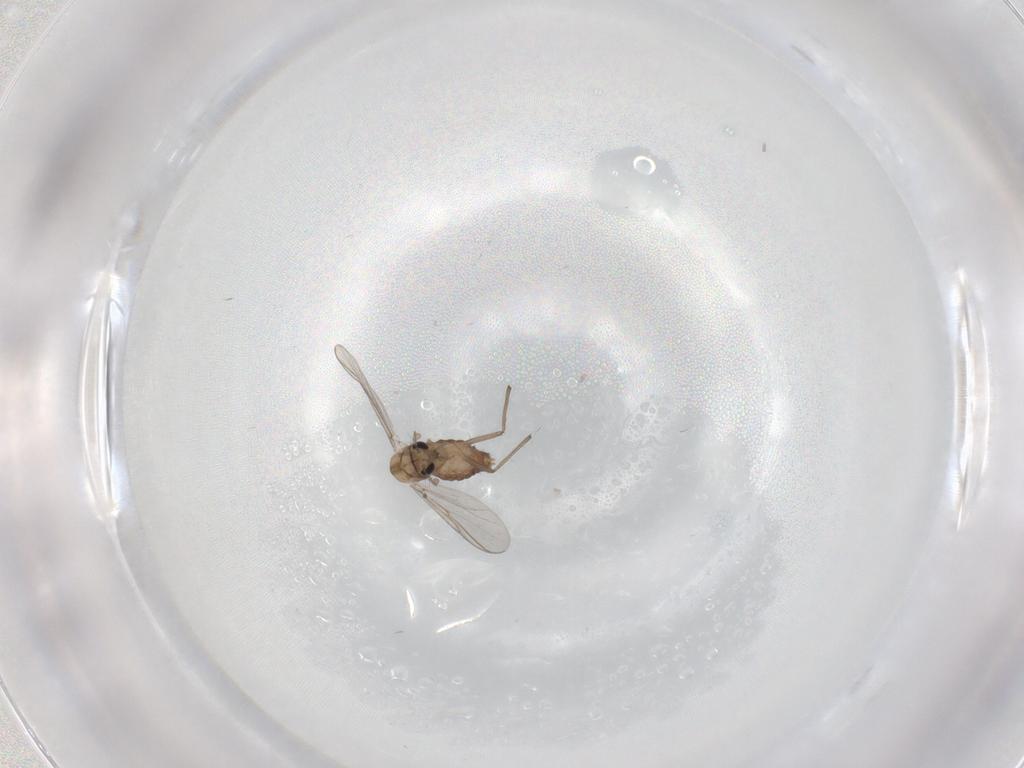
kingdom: Animalia
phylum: Arthropoda
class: Insecta
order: Diptera
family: Chironomidae
